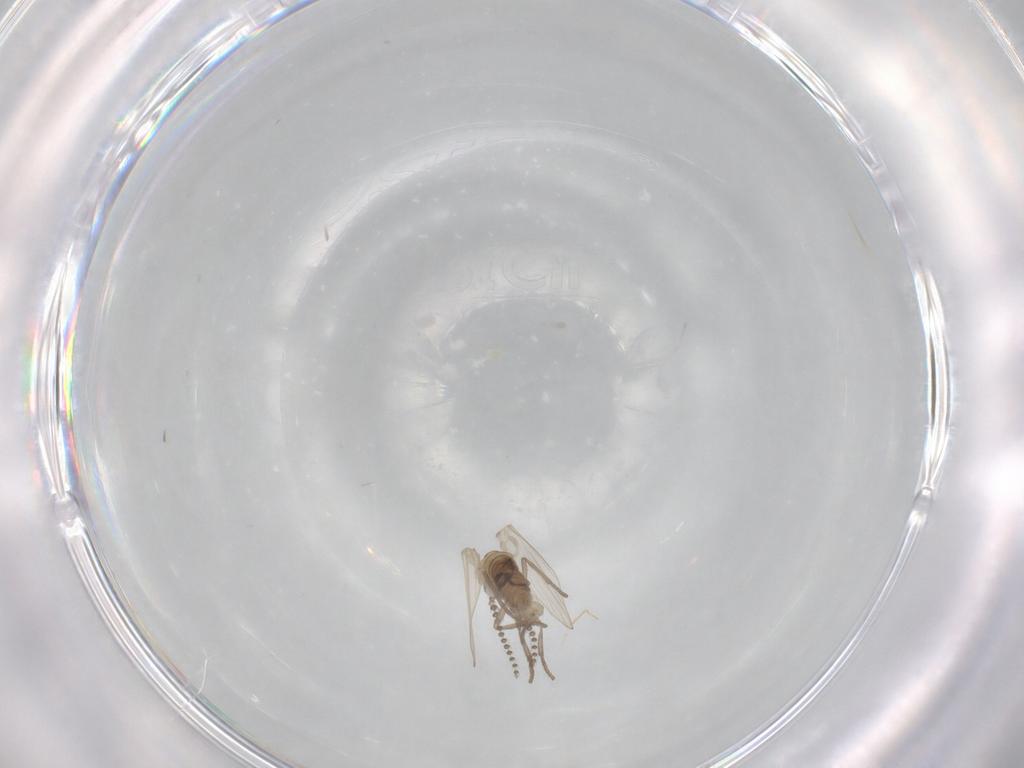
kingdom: Animalia
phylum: Arthropoda
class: Insecta
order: Diptera
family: Psychodidae
